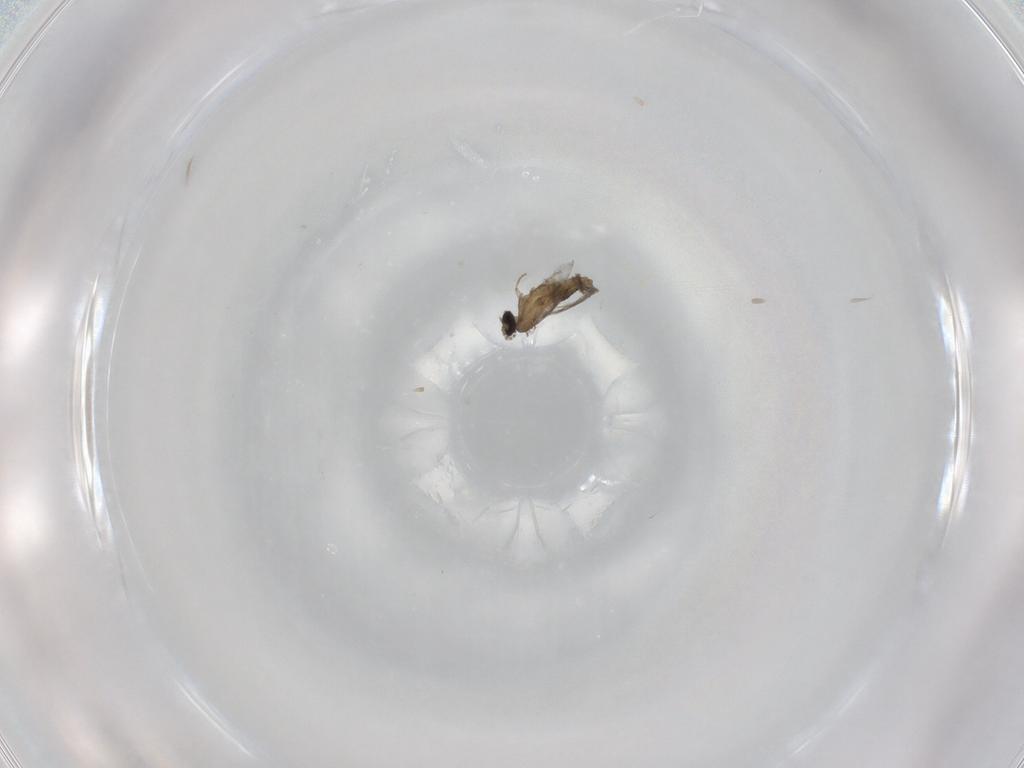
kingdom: Animalia
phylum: Arthropoda
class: Insecta
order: Diptera
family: Cecidomyiidae
